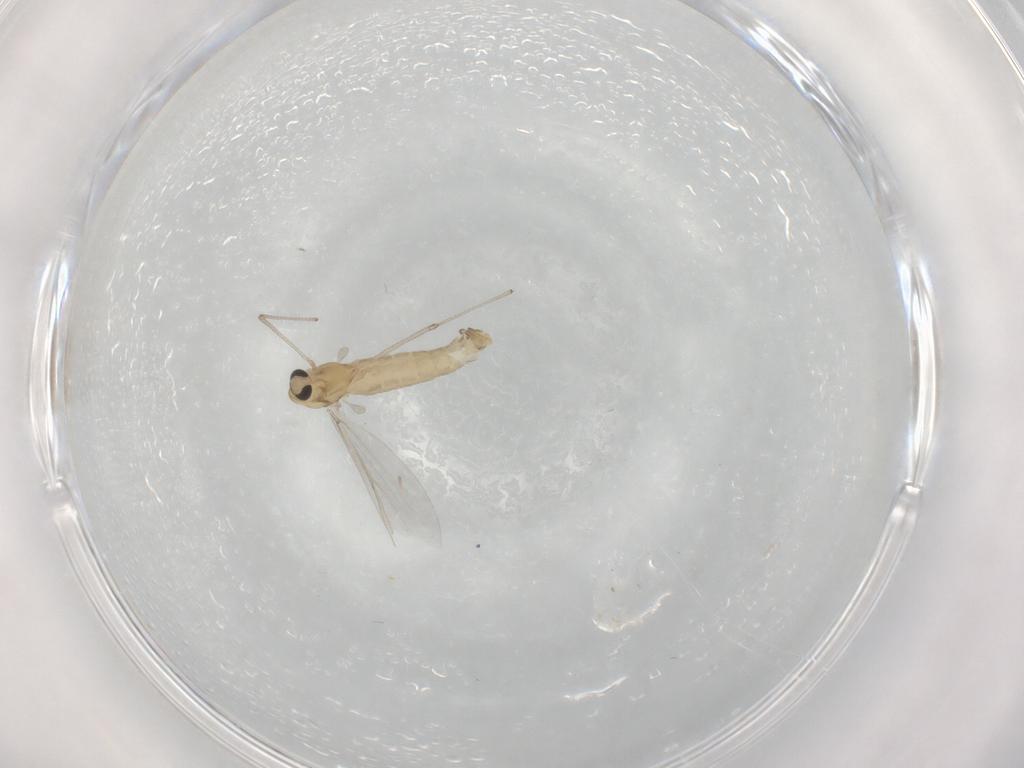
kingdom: Animalia
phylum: Arthropoda
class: Insecta
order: Diptera
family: Chironomidae
